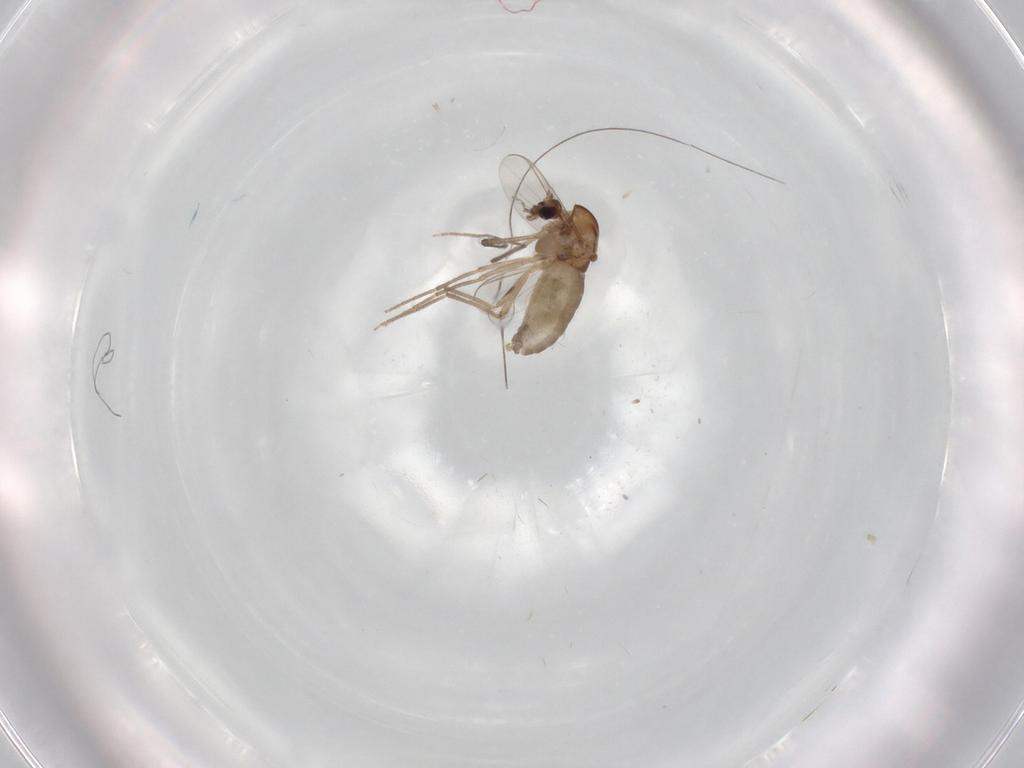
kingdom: Animalia
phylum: Arthropoda
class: Insecta
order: Diptera
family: Chironomidae
